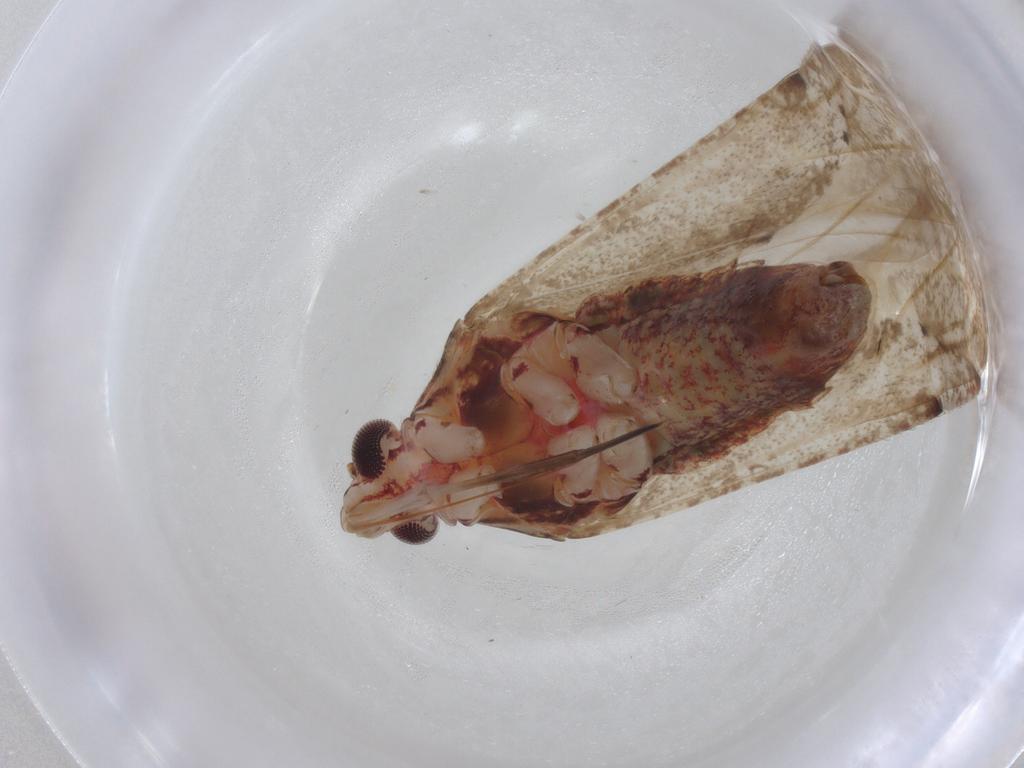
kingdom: Animalia
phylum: Arthropoda
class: Insecta
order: Hemiptera
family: Miridae
